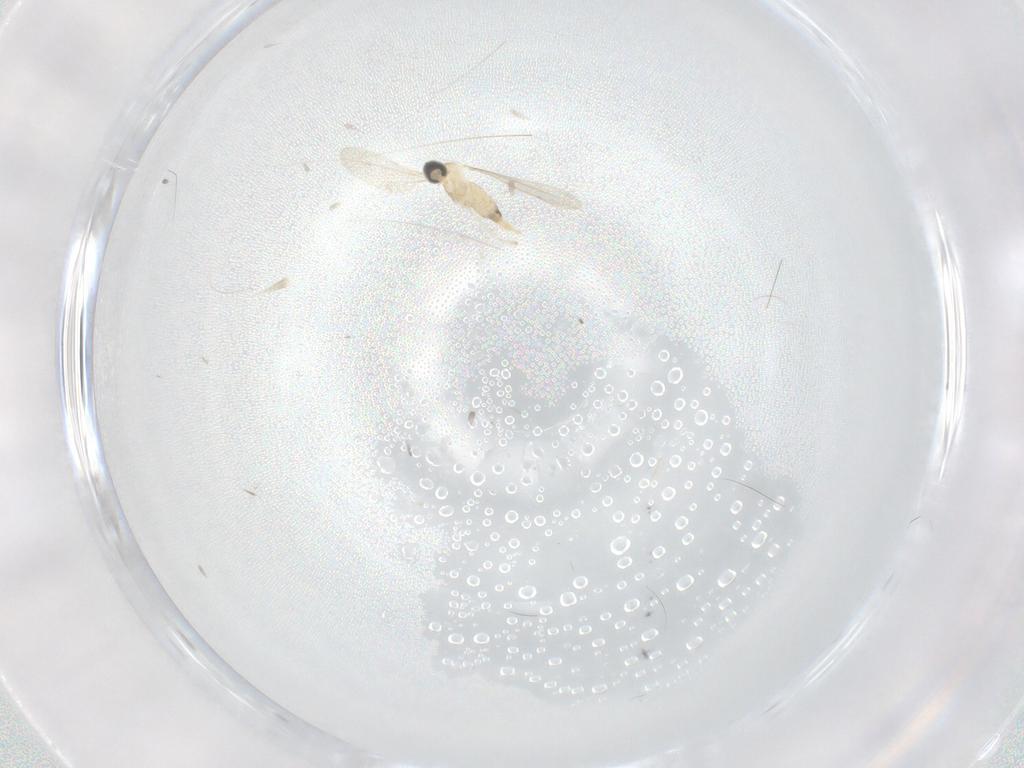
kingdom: Animalia
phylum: Arthropoda
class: Insecta
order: Diptera
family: Cecidomyiidae
